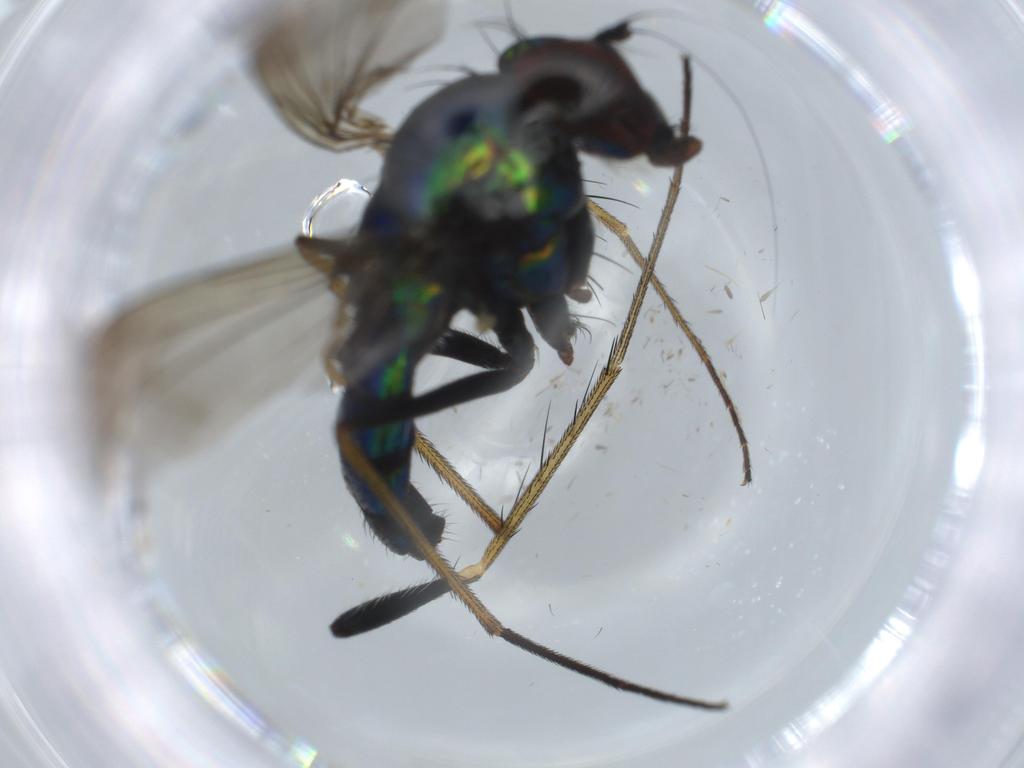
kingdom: Animalia
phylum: Arthropoda
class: Insecta
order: Diptera
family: Dolichopodidae
